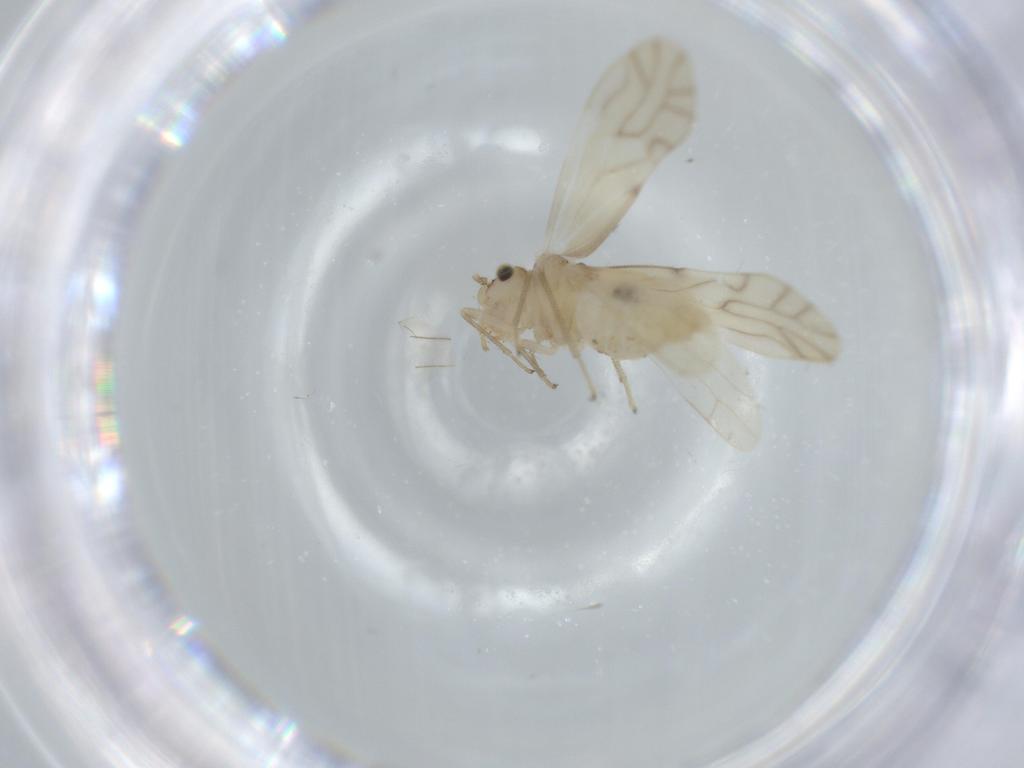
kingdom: Animalia
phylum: Arthropoda
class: Insecta
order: Psocodea
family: Caeciliusidae
